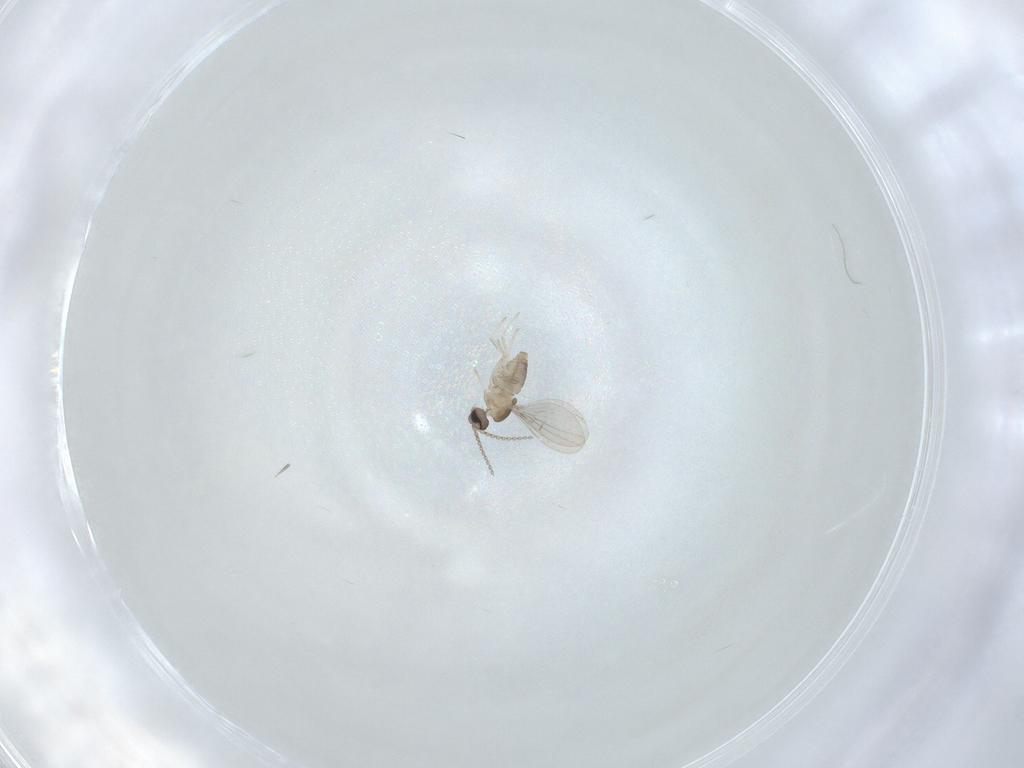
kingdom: Animalia
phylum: Arthropoda
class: Insecta
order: Diptera
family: Cecidomyiidae
